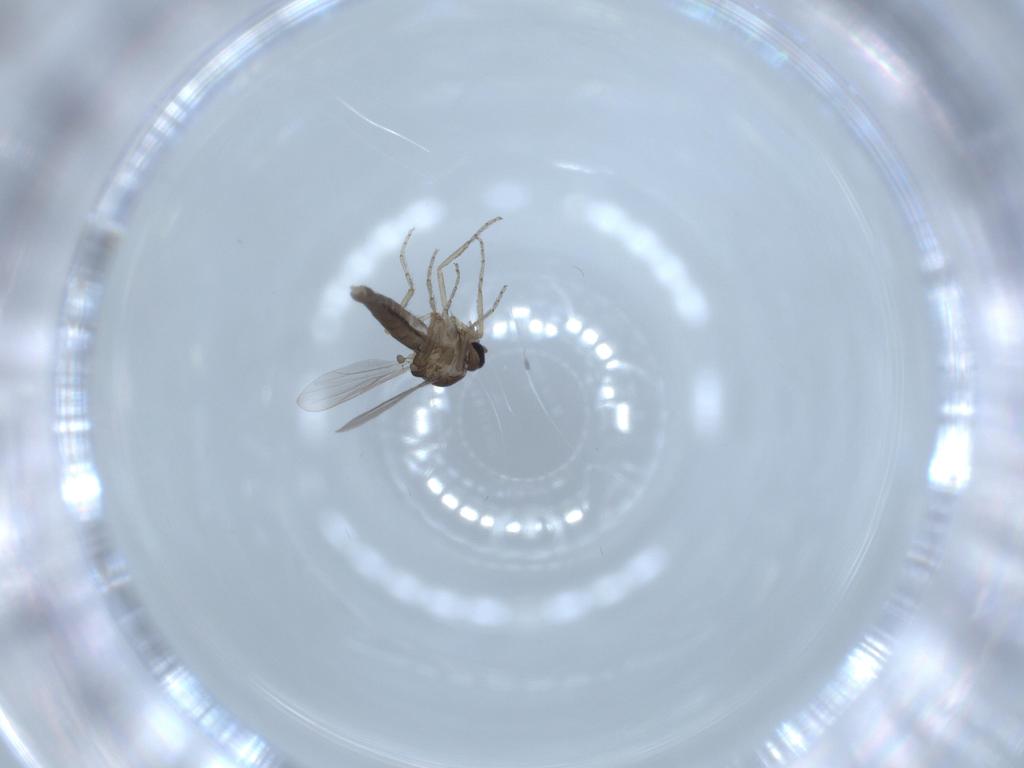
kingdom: Animalia
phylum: Arthropoda
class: Insecta
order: Diptera
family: Ceratopogonidae
